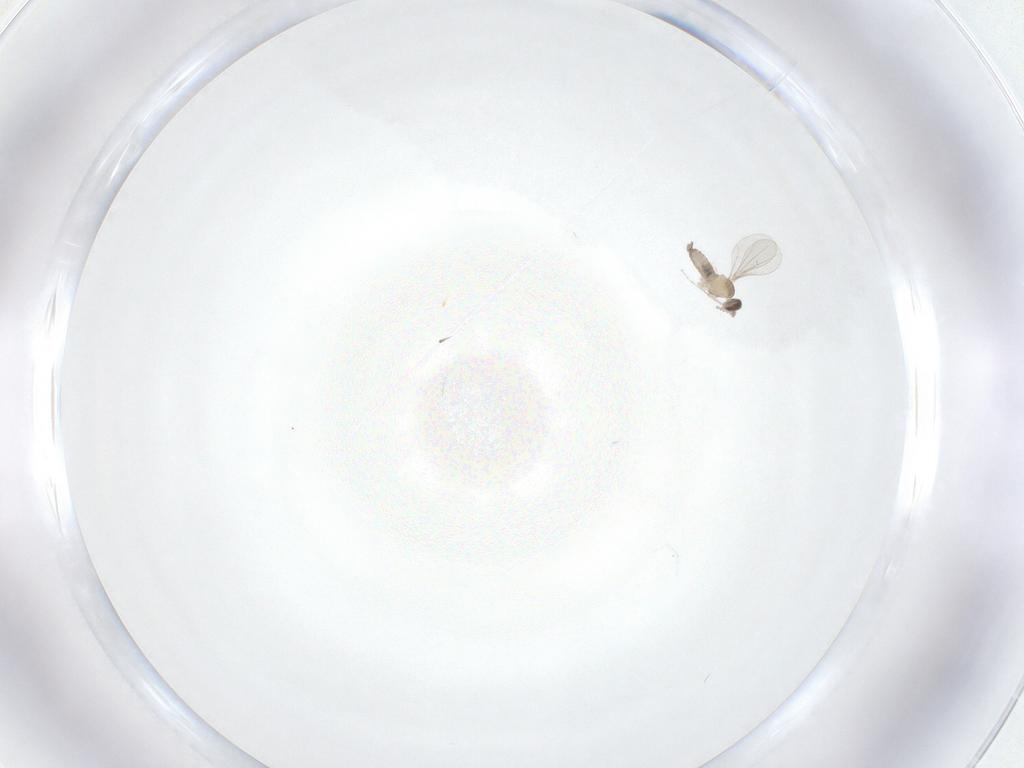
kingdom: Animalia
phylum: Arthropoda
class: Insecta
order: Diptera
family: Cecidomyiidae
